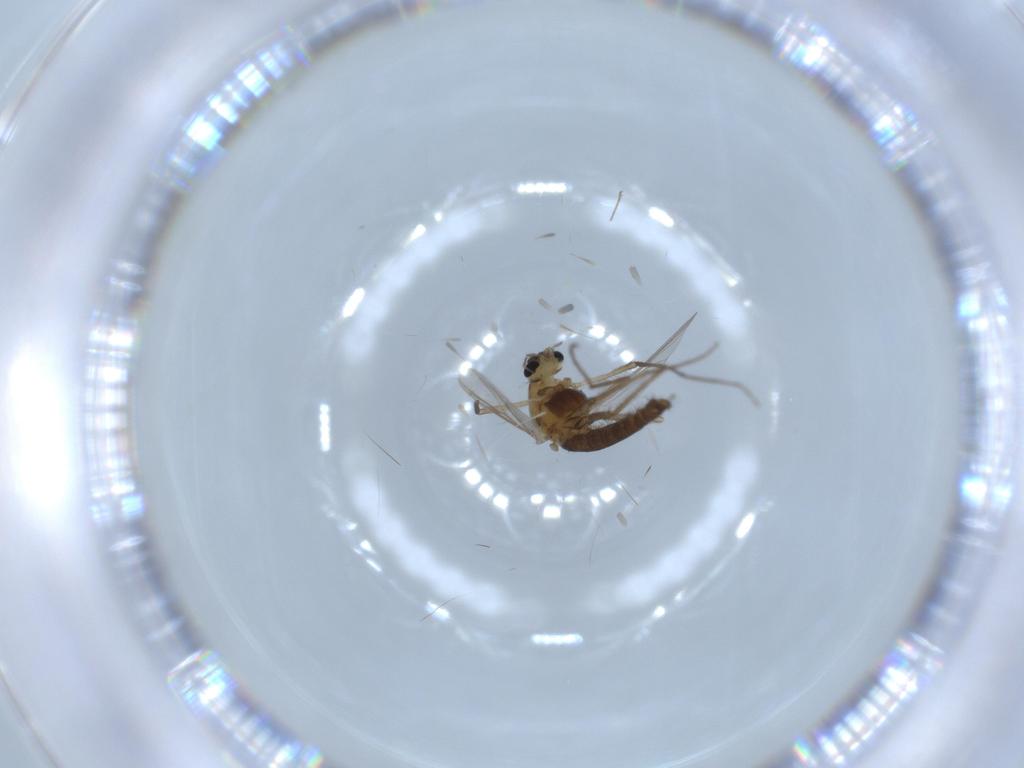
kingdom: Animalia
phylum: Arthropoda
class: Insecta
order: Diptera
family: Chironomidae
